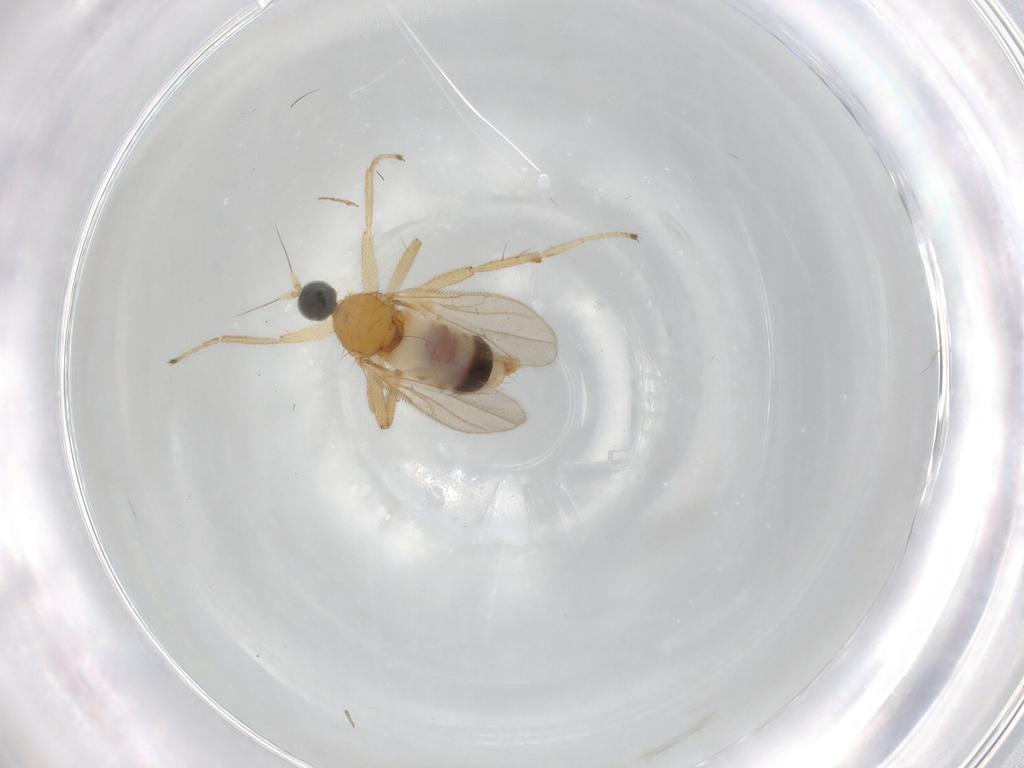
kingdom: Animalia
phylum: Arthropoda
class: Insecta
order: Diptera
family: Hybotidae
